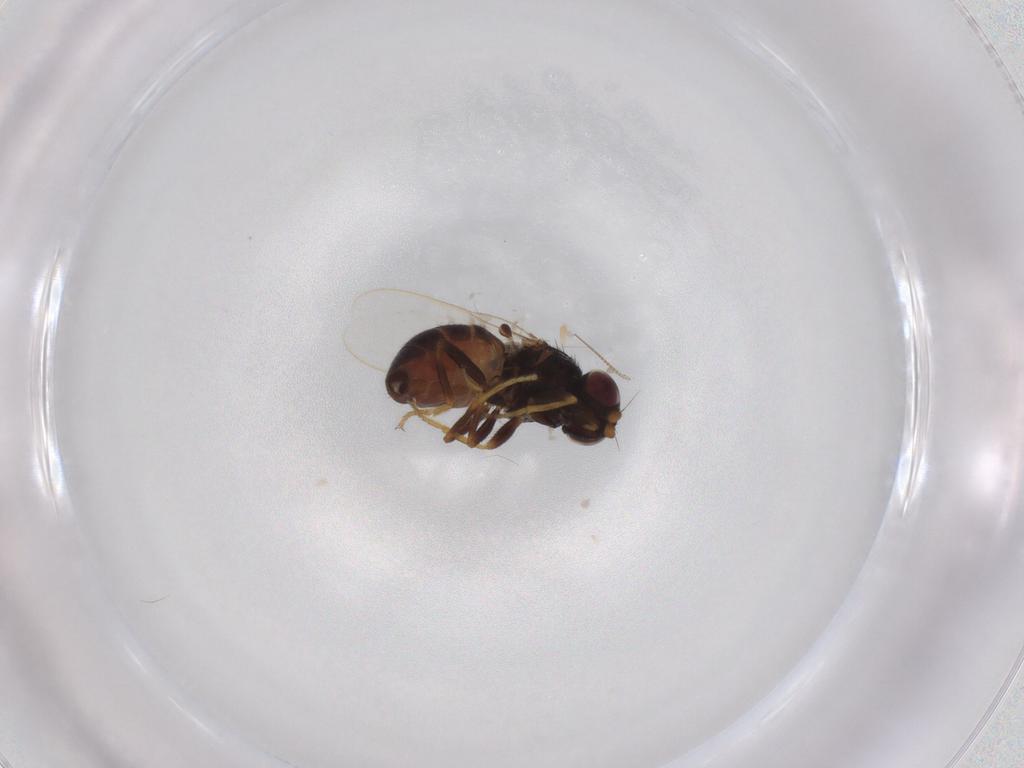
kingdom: Animalia
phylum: Arthropoda
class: Insecta
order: Diptera
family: Chloropidae
